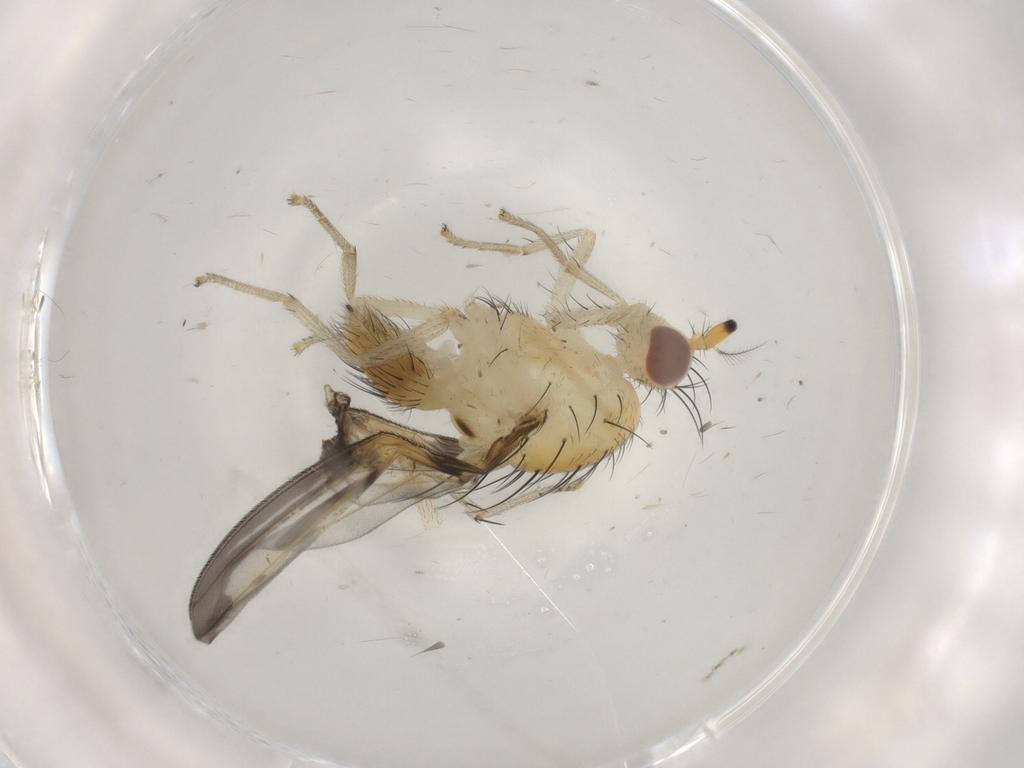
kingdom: Animalia
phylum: Arthropoda
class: Insecta
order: Diptera
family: Lauxaniidae
